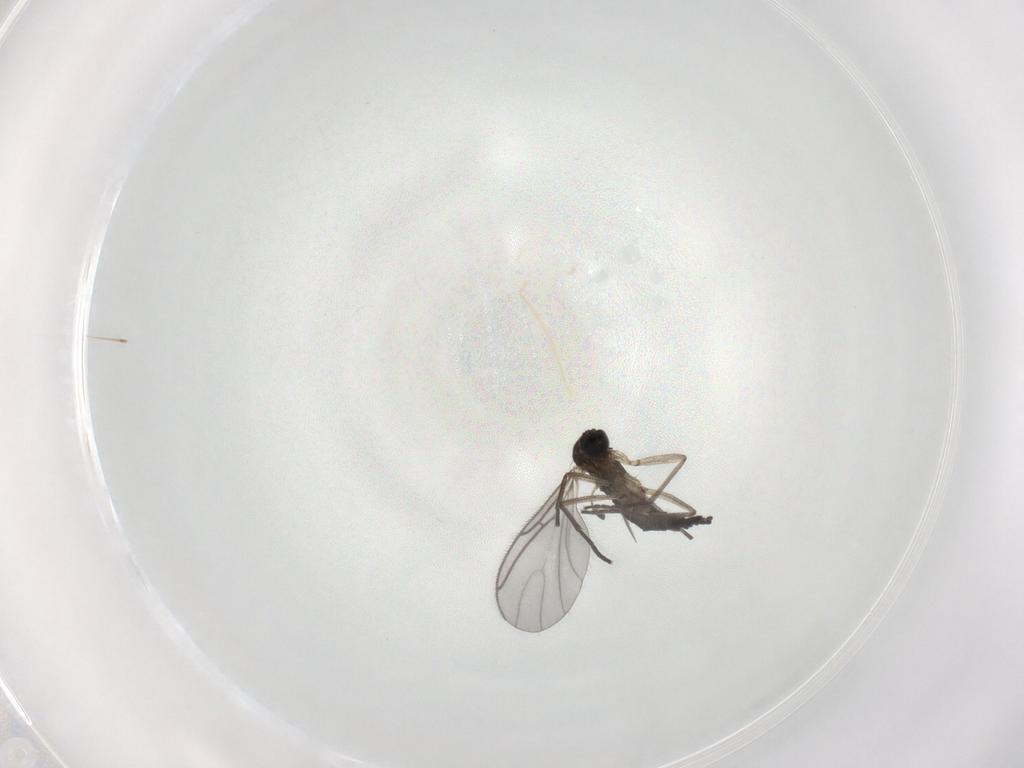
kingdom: Animalia
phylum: Arthropoda
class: Insecta
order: Diptera
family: Sciaridae
